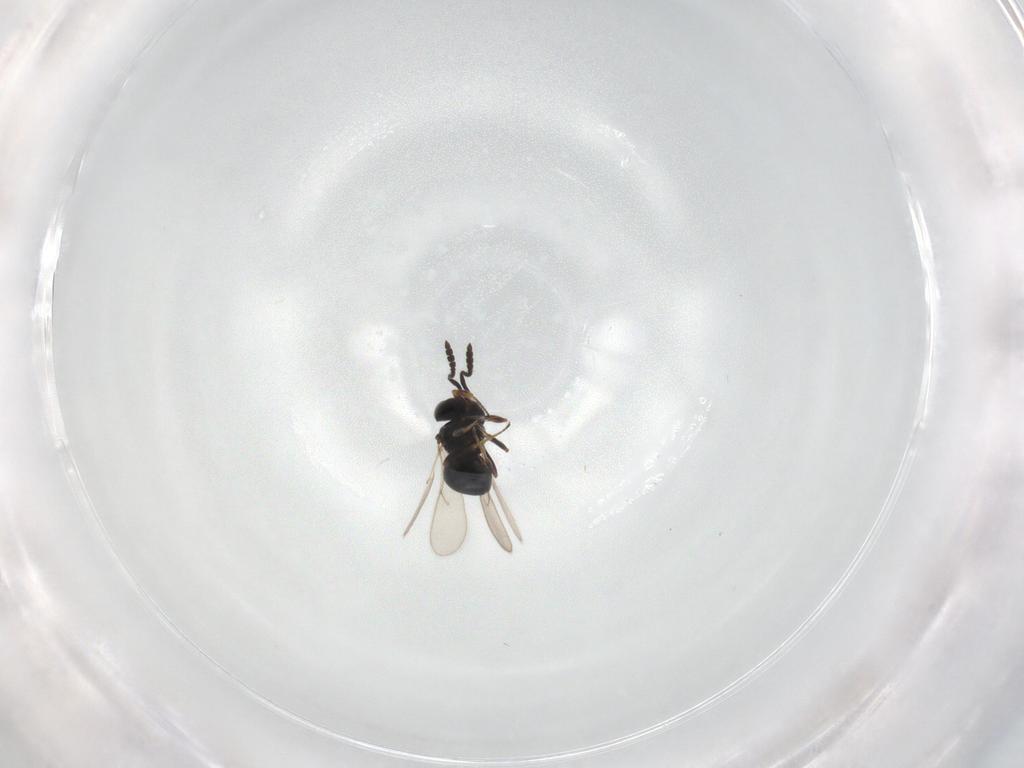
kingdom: Animalia
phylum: Arthropoda
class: Insecta
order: Hymenoptera
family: Scelionidae
